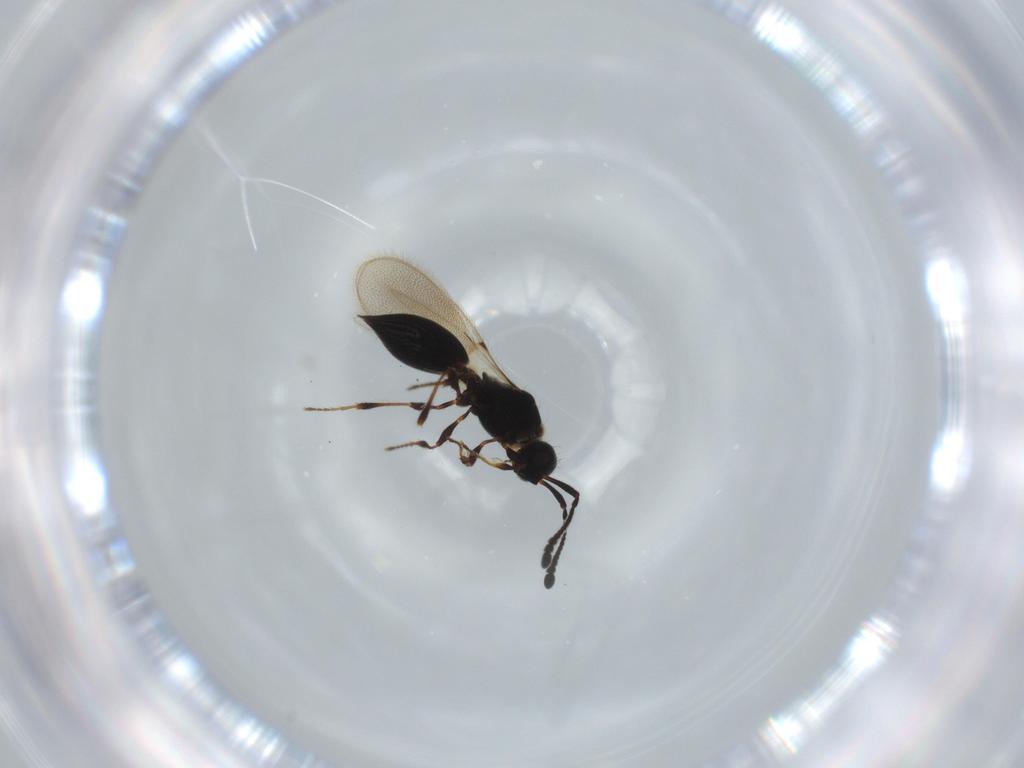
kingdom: Animalia
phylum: Arthropoda
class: Insecta
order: Hymenoptera
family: Diapriidae
